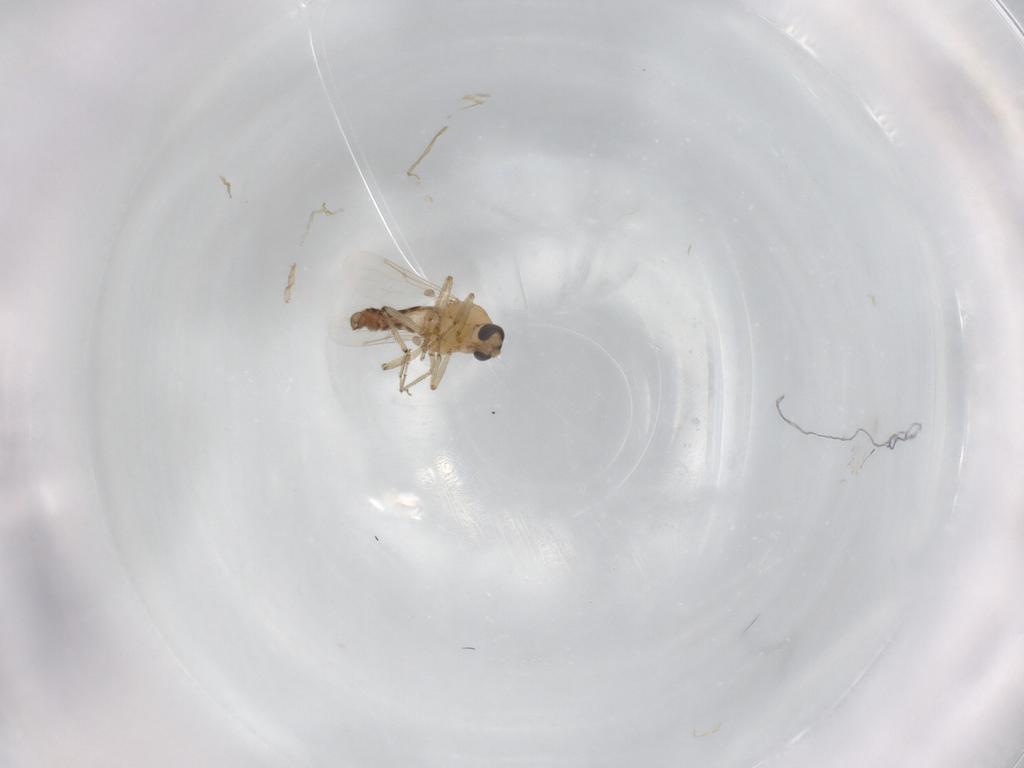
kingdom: Animalia
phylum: Arthropoda
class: Insecta
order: Diptera
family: Ceratopogonidae
